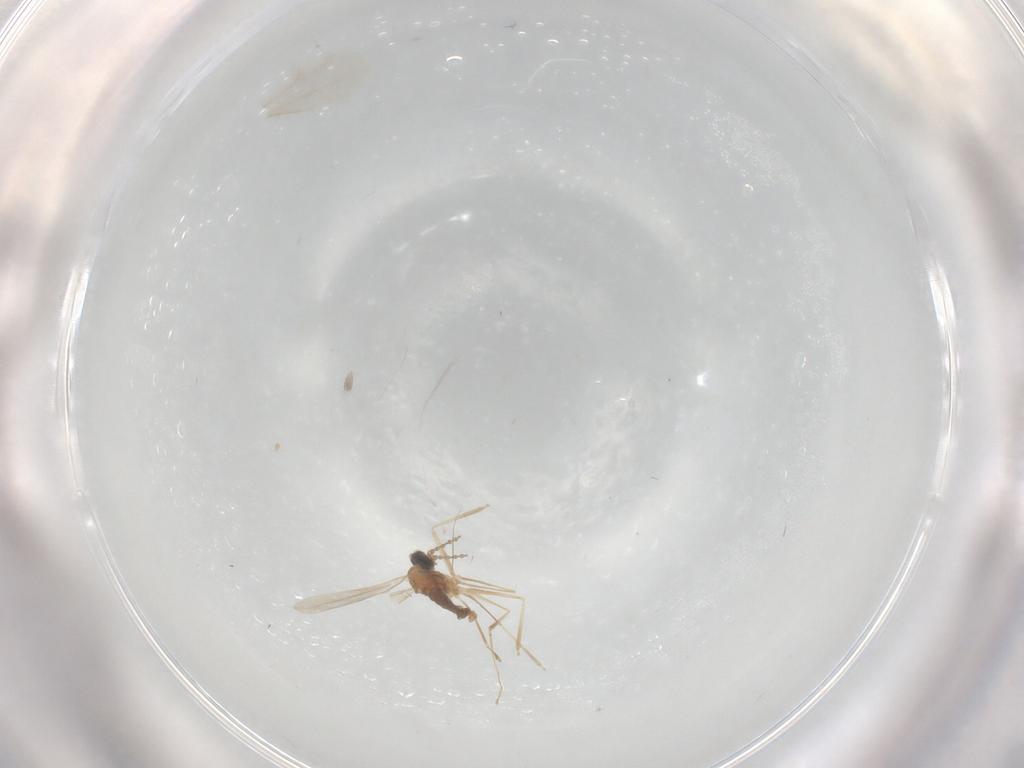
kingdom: Animalia
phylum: Arthropoda
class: Insecta
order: Diptera
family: Cecidomyiidae
